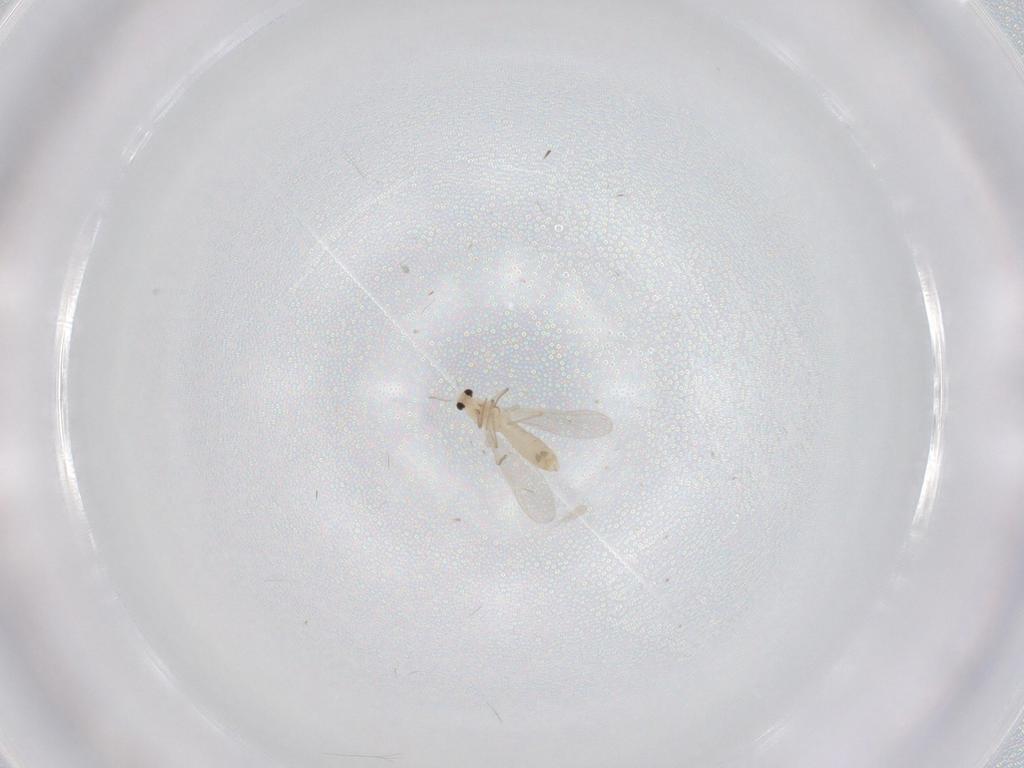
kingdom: Animalia
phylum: Arthropoda
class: Insecta
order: Diptera
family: Chironomidae
